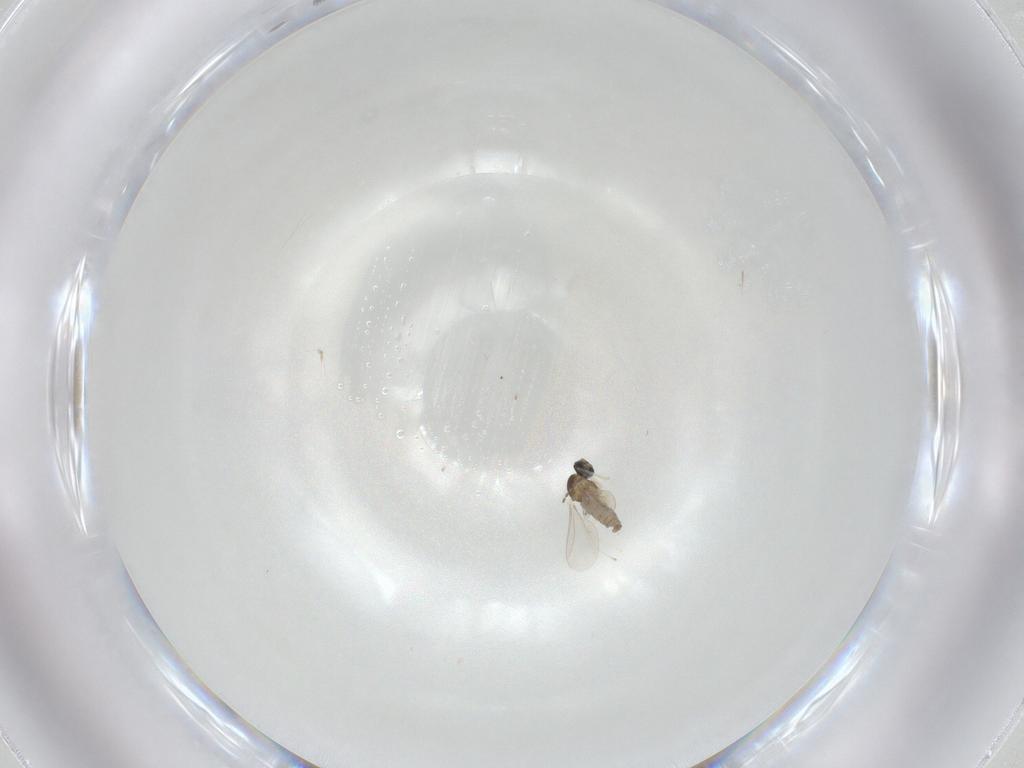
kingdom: Animalia
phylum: Arthropoda
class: Insecta
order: Diptera
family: Cecidomyiidae
